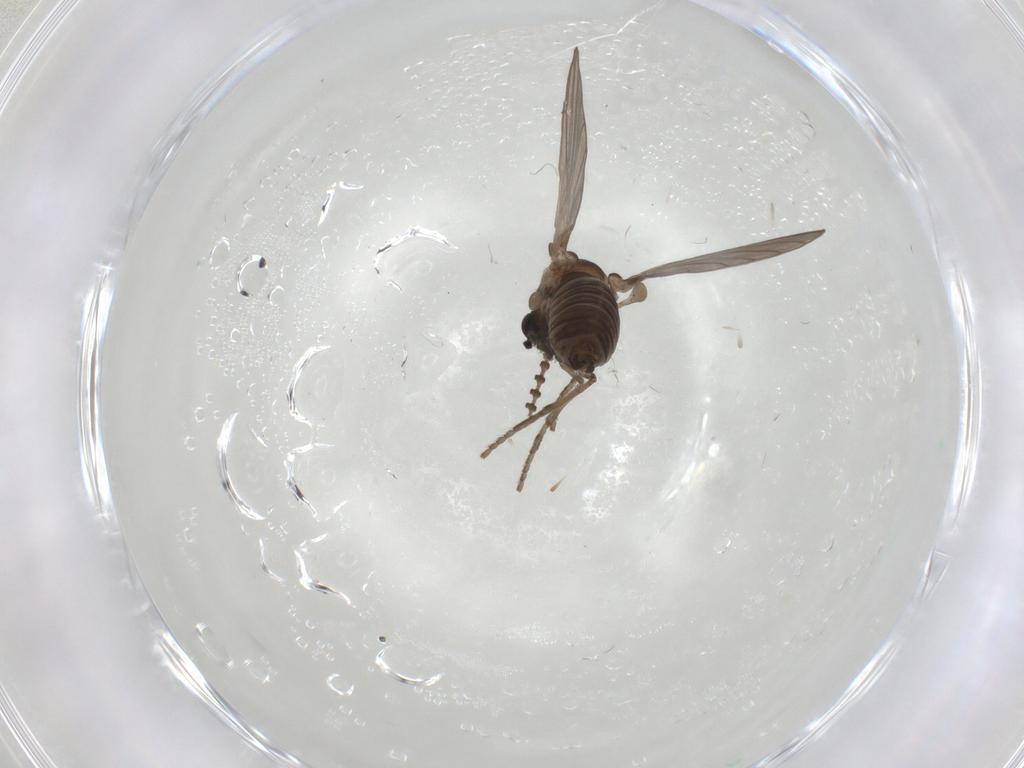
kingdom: Animalia
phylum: Arthropoda
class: Insecta
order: Diptera
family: Psychodidae
